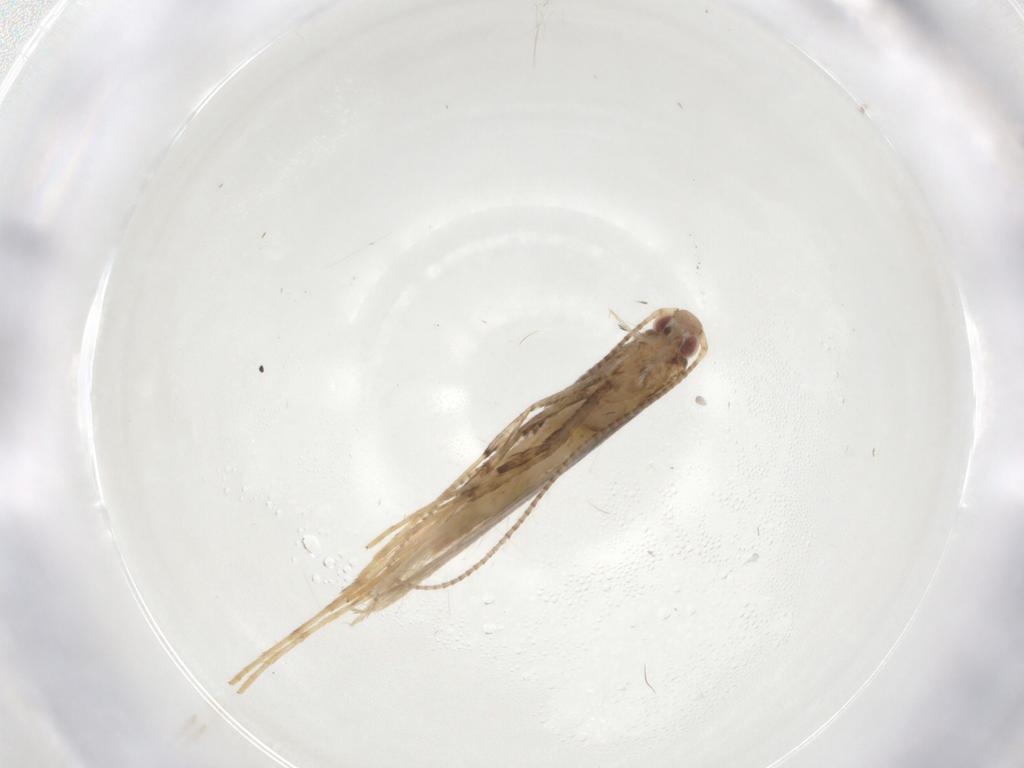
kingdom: Animalia
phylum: Arthropoda
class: Insecta
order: Lepidoptera
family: Gracillariidae
